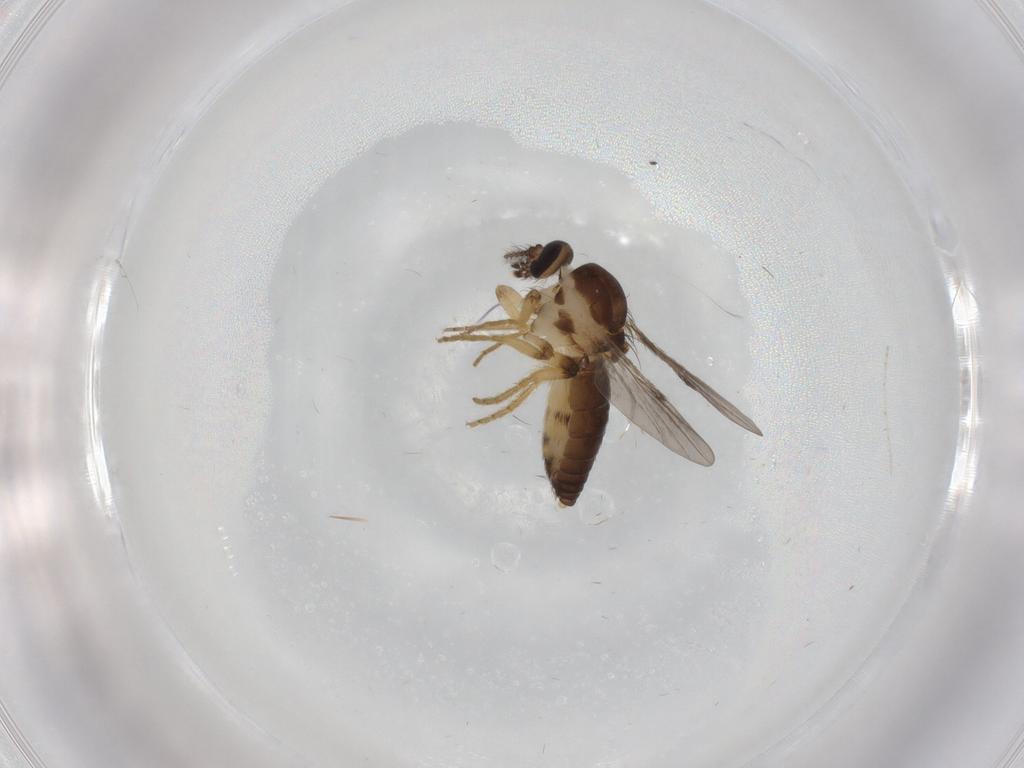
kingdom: Animalia
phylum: Arthropoda
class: Insecta
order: Diptera
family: Ceratopogonidae
